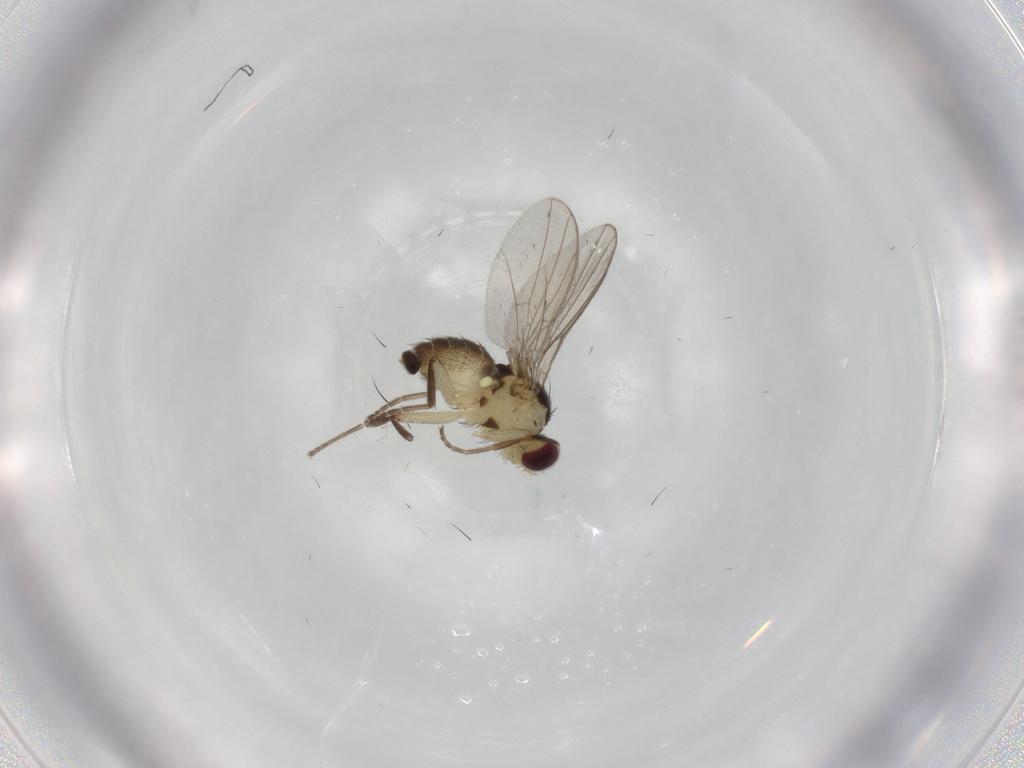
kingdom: Animalia
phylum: Arthropoda
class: Insecta
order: Diptera
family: Agromyzidae
